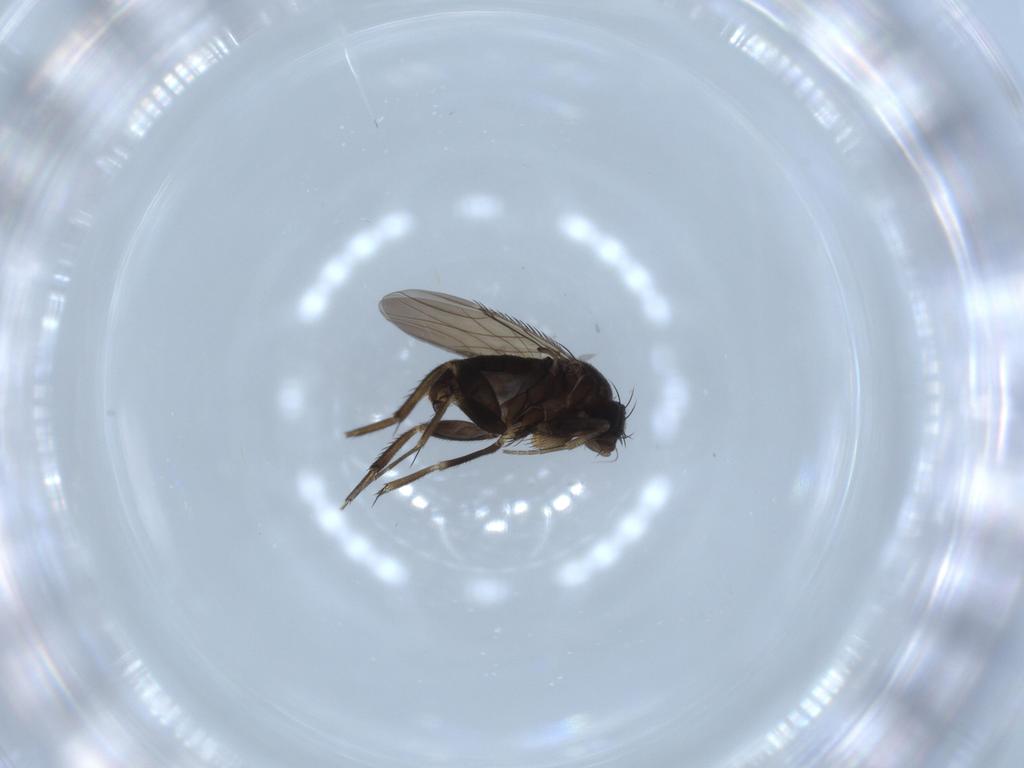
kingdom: Animalia
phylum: Arthropoda
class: Insecta
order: Diptera
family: Phoridae
